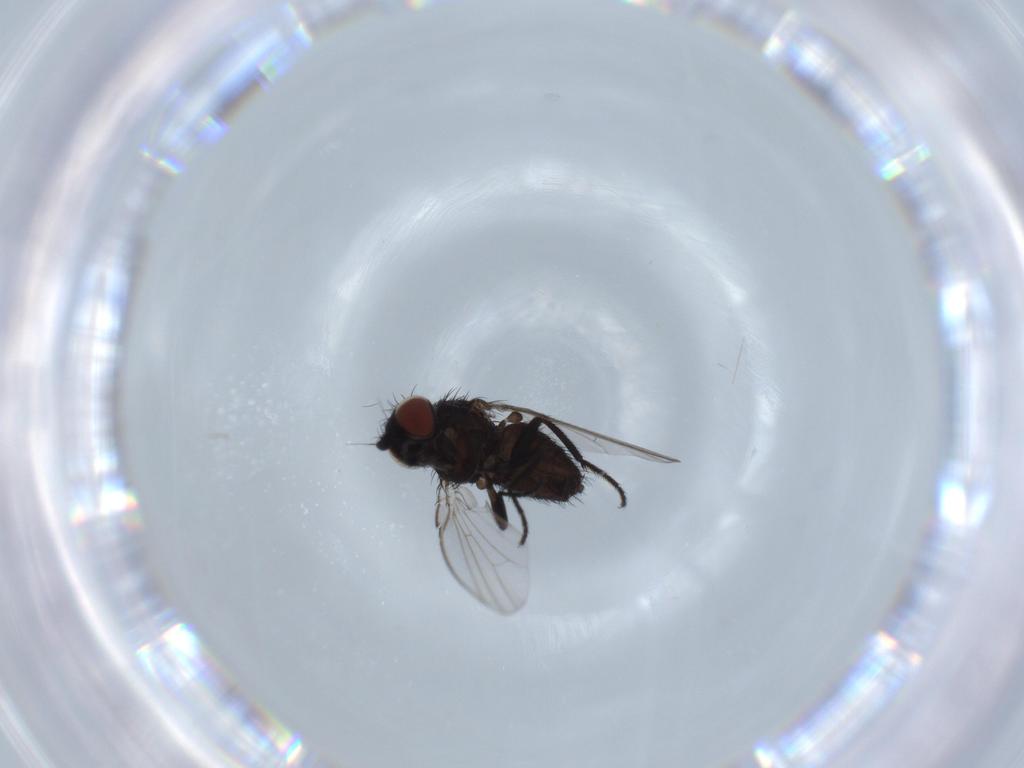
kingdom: Animalia
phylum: Arthropoda
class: Insecta
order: Diptera
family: Milichiidae
